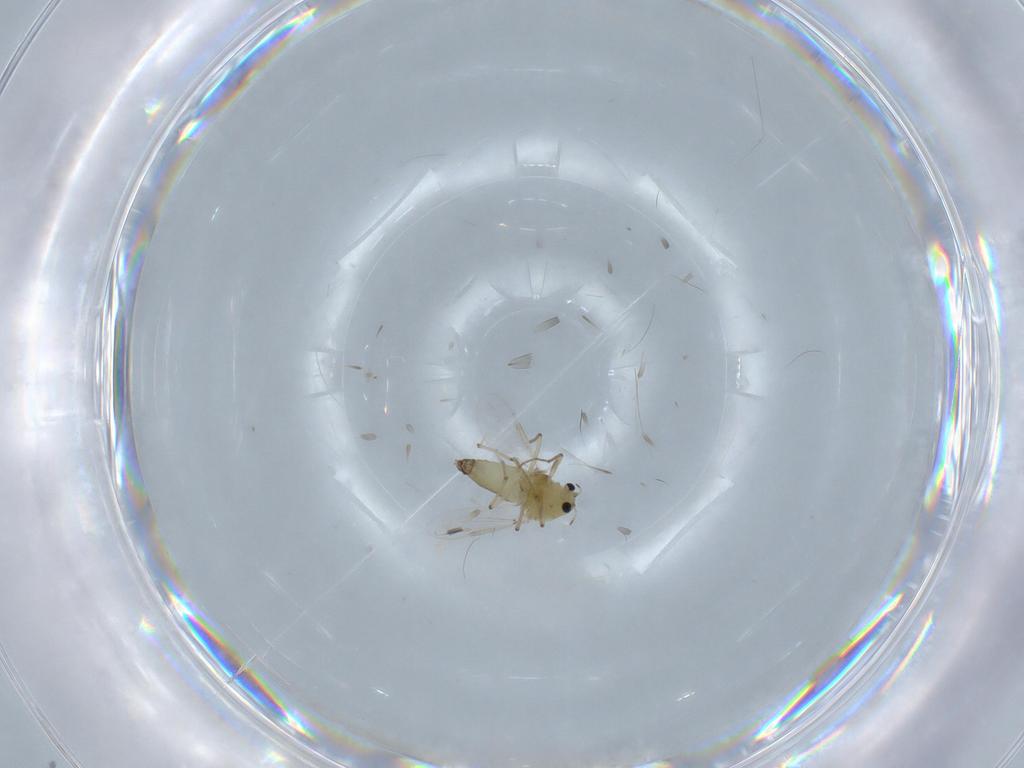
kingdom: Animalia
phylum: Arthropoda
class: Insecta
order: Diptera
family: Chironomidae
